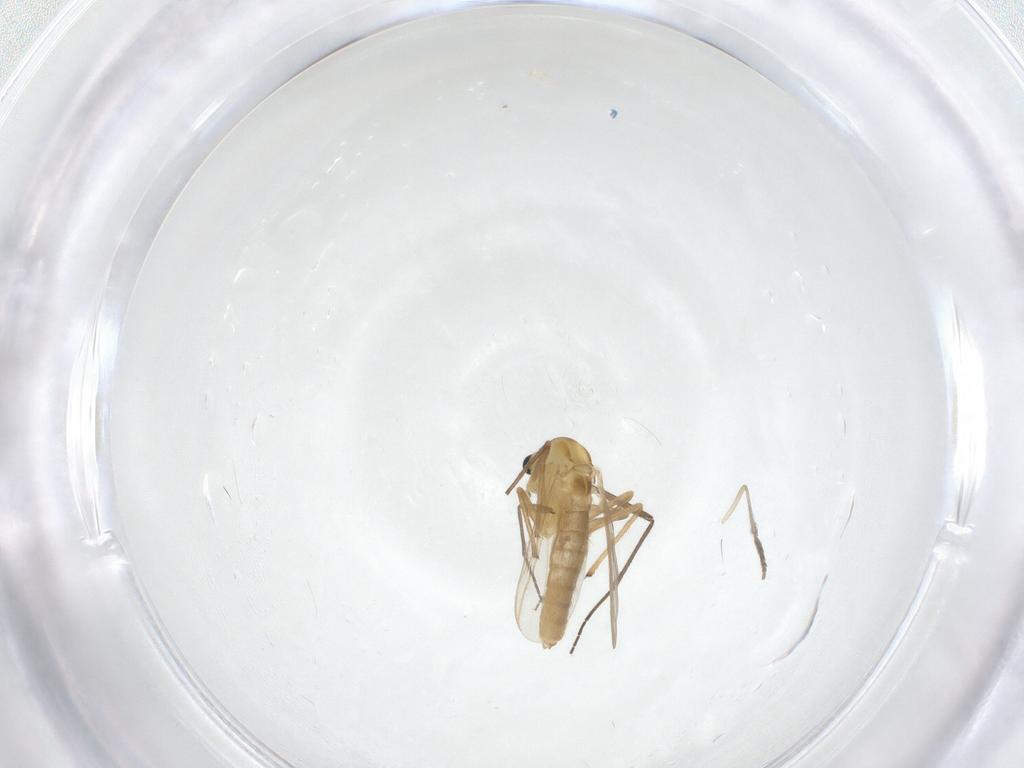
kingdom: Animalia
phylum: Arthropoda
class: Insecta
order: Diptera
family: Chironomidae
